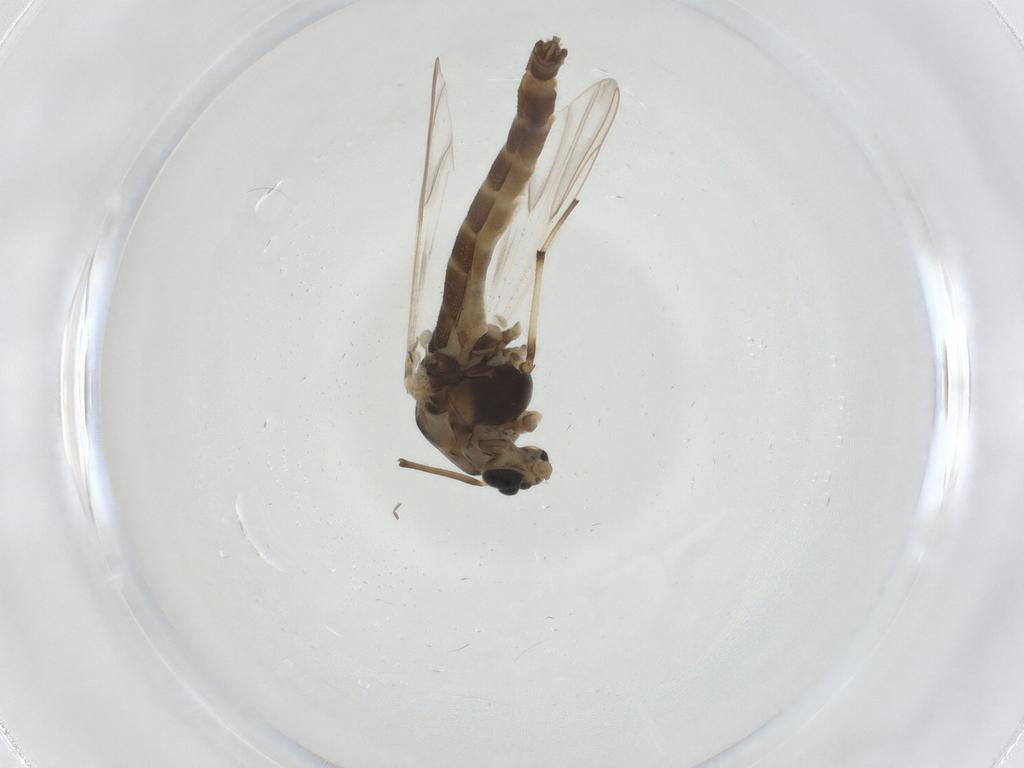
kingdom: Animalia
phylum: Arthropoda
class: Insecta
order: Diptera
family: Chironomidae
